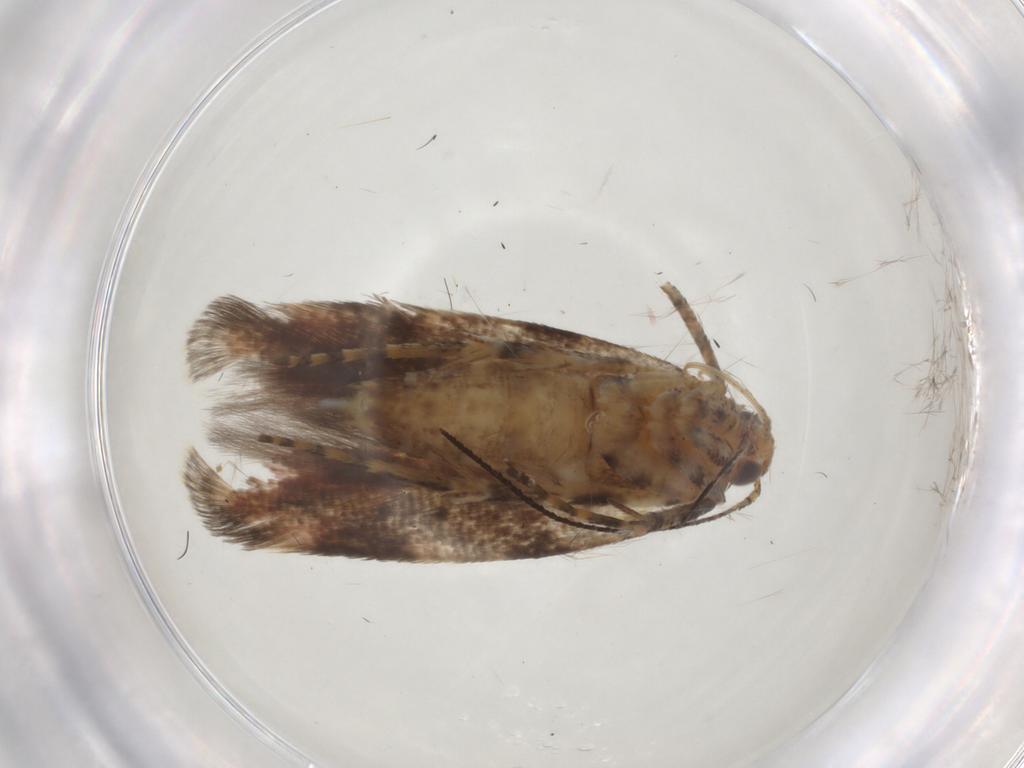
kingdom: Animalia
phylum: Arthropoda
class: Insecta
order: Lepidoptera
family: Gelechiidae
